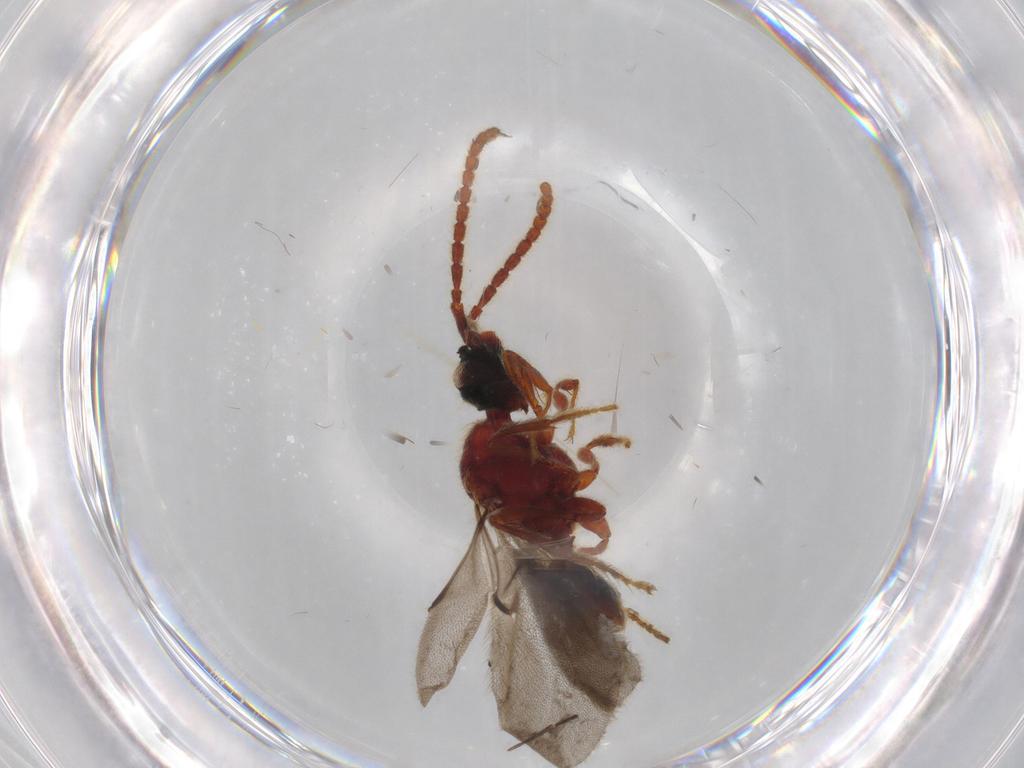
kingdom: Animalia
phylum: Arthropoda
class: Insecta
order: Hymenoptera
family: Diapriidae
